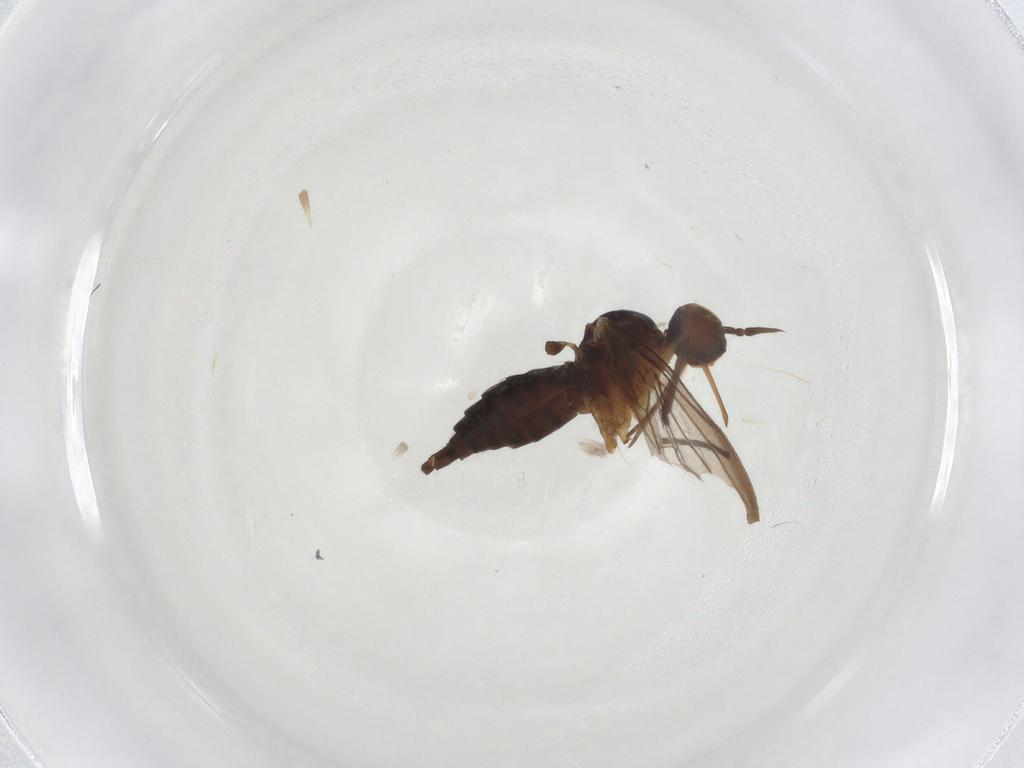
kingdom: Animalia
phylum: Arthropoda
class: Insecta
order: Diptera
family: Dolichopodidae
